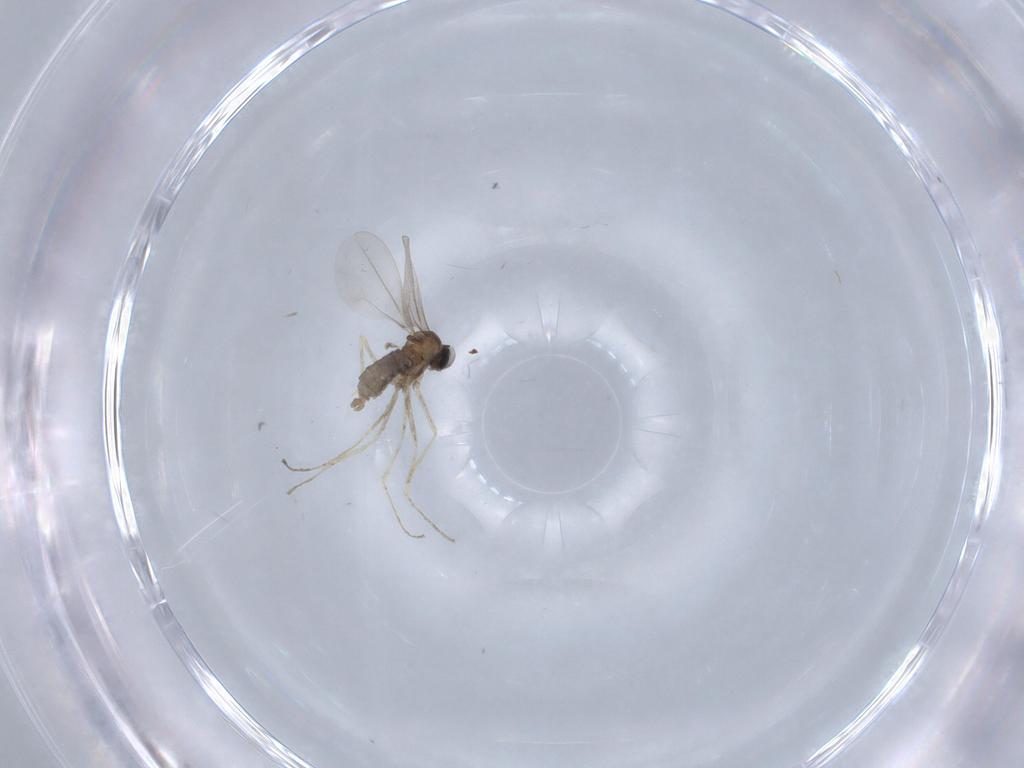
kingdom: Animalia
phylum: Arthropoda
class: Insecta
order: Diptera
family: Cecidomyiidae
